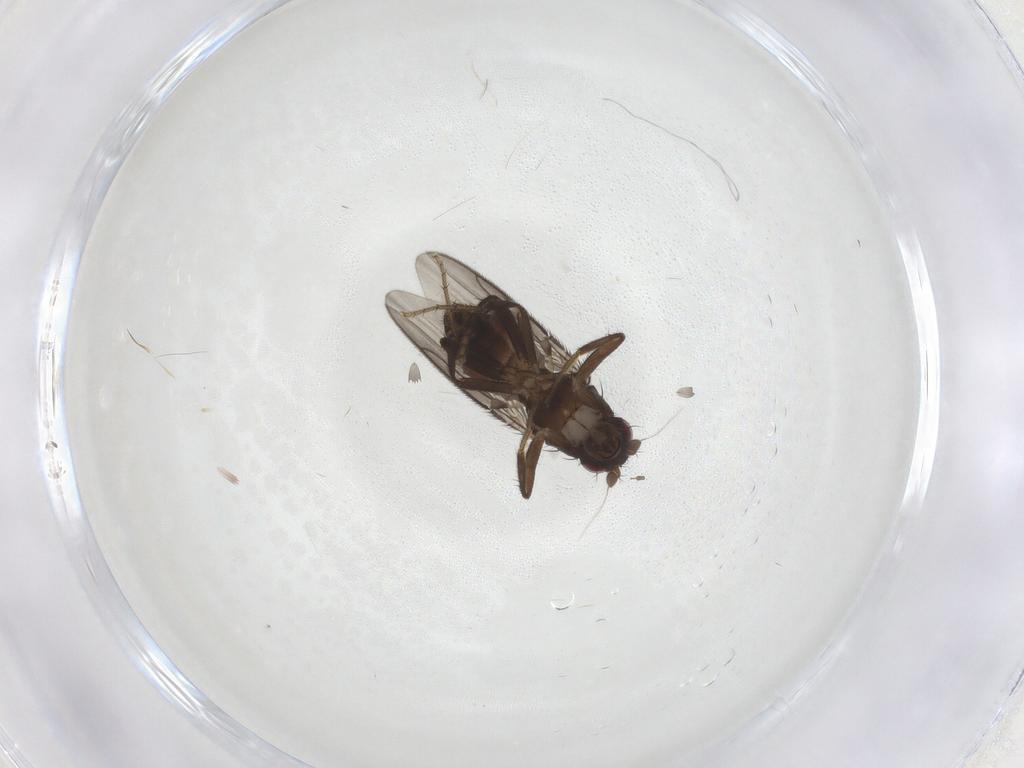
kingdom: Animalia
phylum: Arthropoda
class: Insecta
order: Diptera
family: Sphaeroceridae
